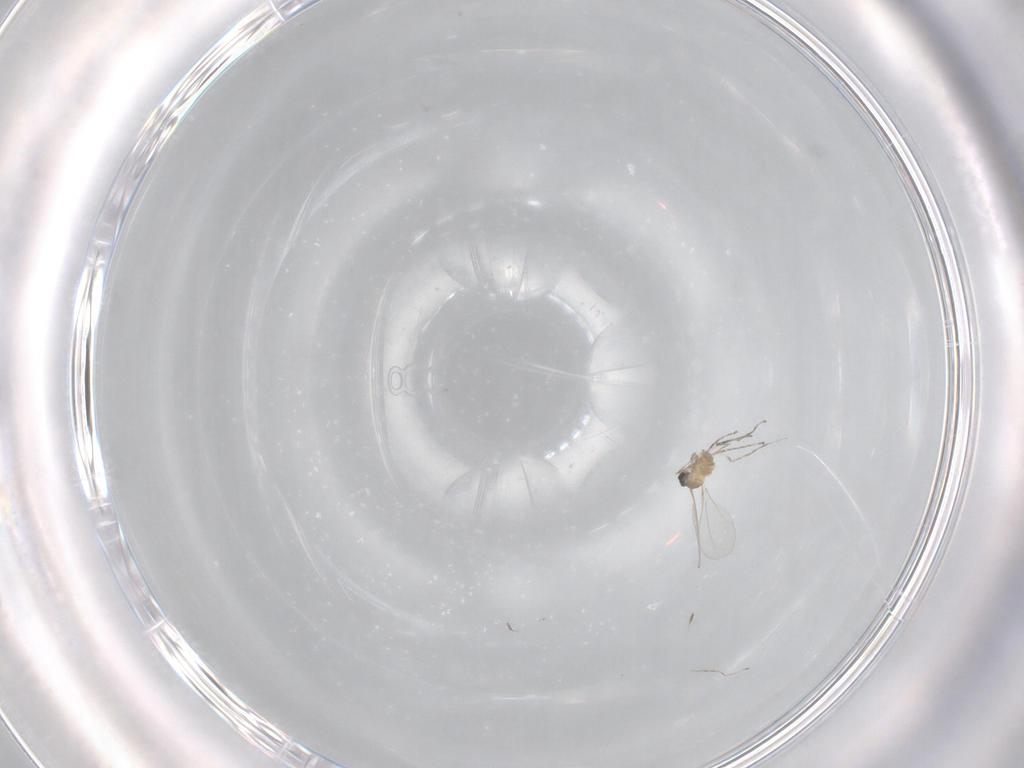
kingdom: Animalia
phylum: Arthropoda
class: Insecta
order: Diptera
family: Cecidomyiidae
